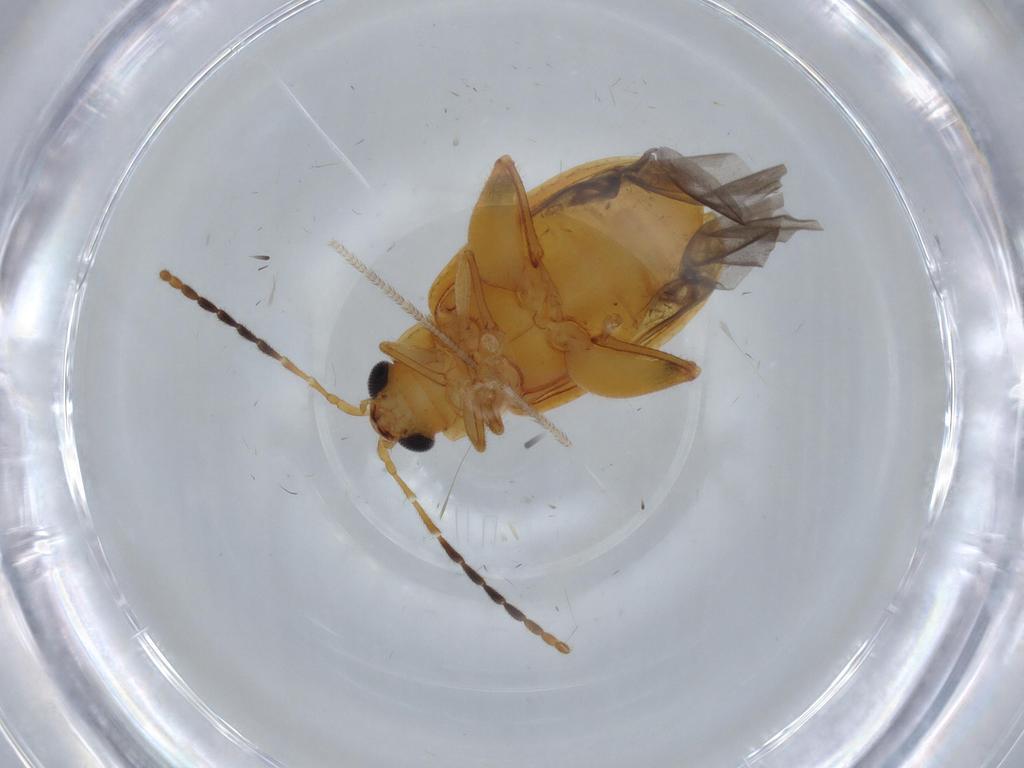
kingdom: Animalia
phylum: Arthropoda
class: Insecta
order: Coleoptera
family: Chrysomelidae
